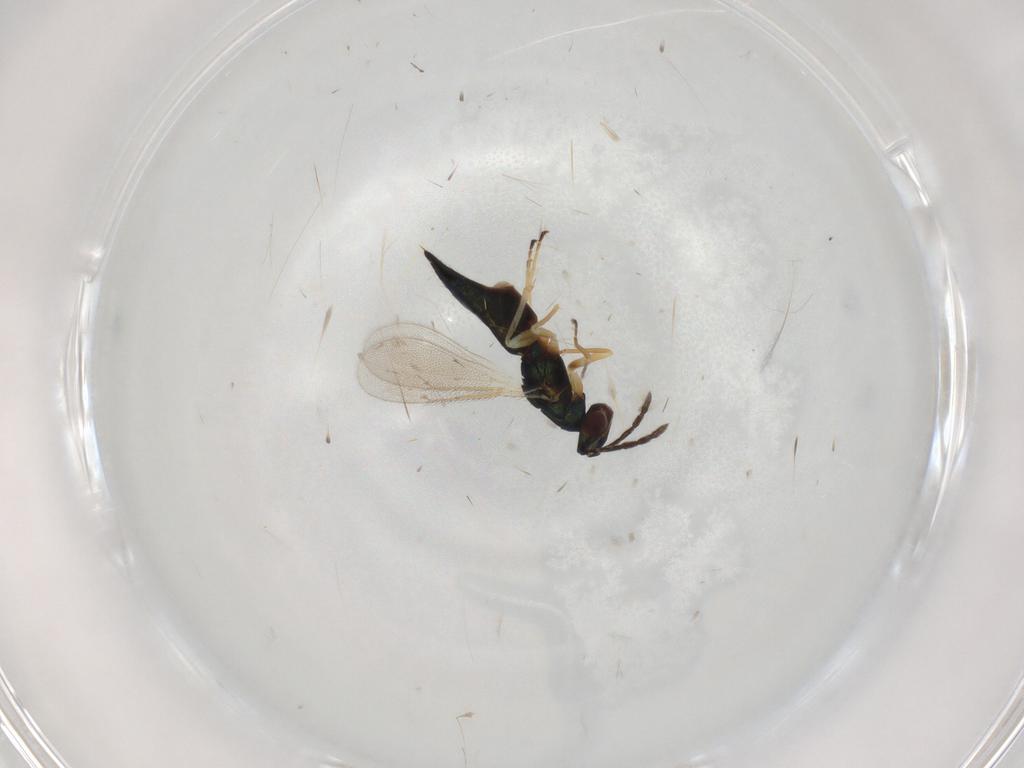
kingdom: Animalia
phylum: Arthropoda
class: Insecta
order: Hymenoptera
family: Eulophidae
